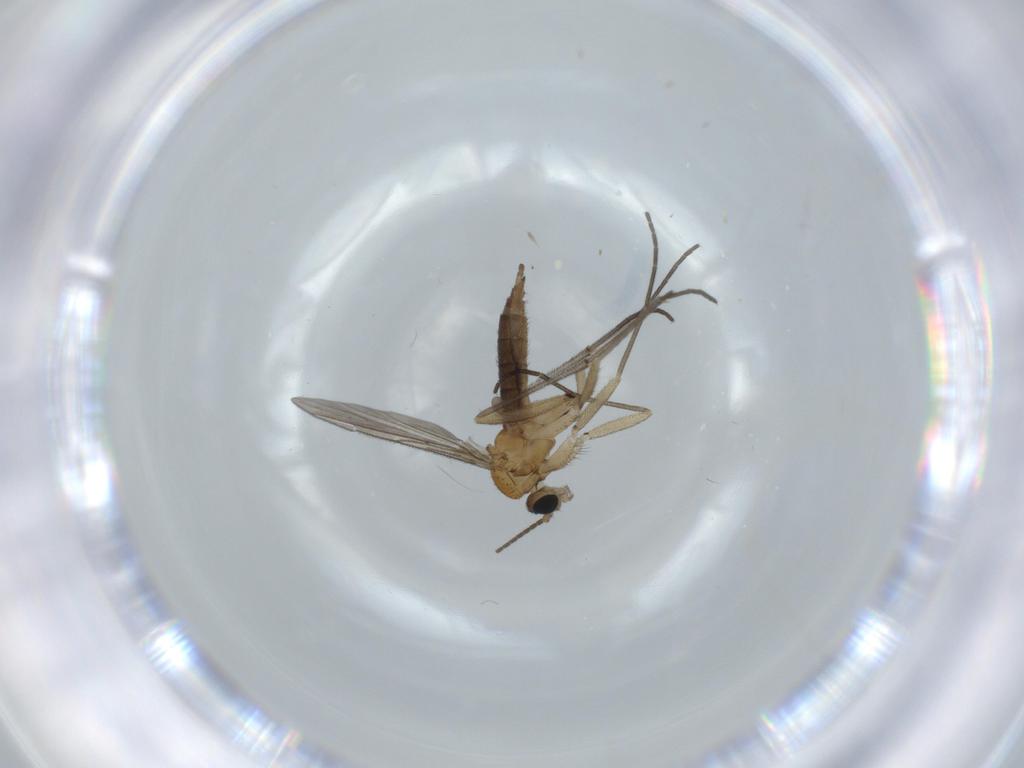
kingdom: Animalia
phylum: Arthropoda
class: Insecta
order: Diptera
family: Sciaridae
